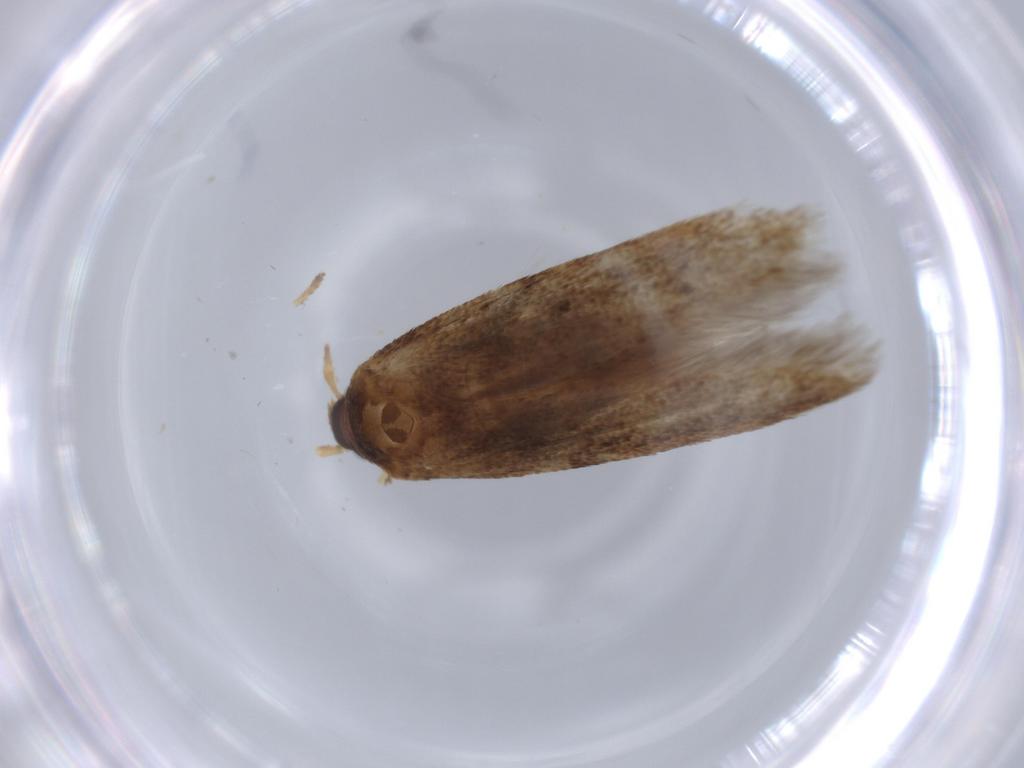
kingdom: Animalia
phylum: Arthropoda
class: Insecta
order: Lepidoptera
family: Blastobasidae
